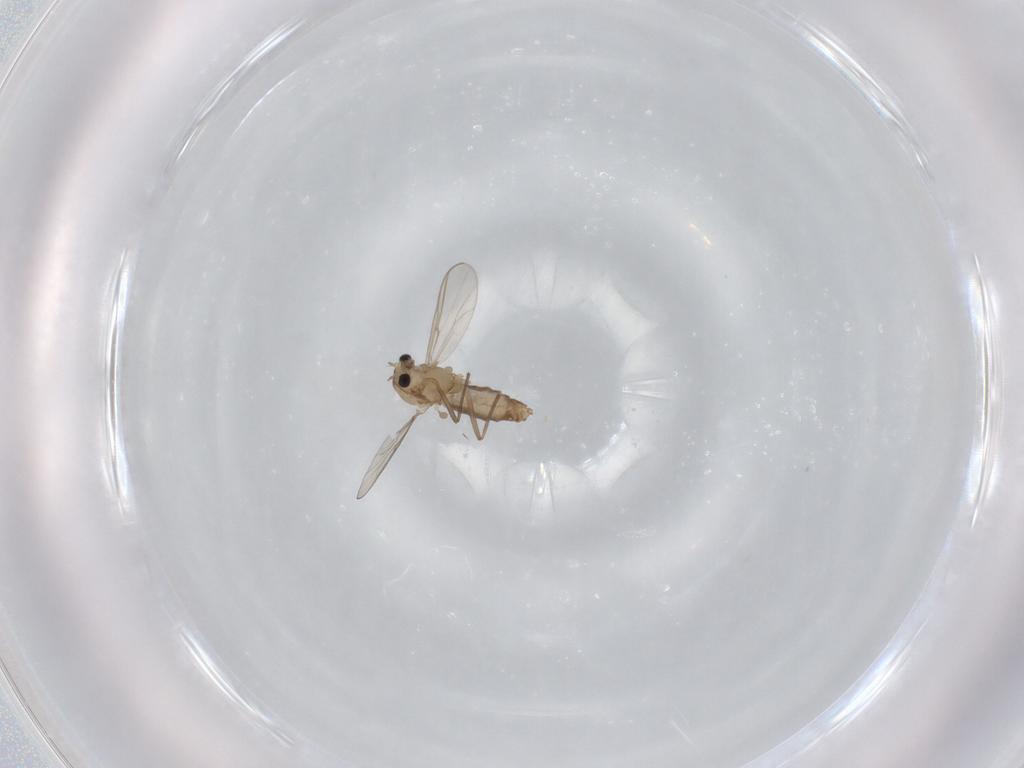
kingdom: Animalia
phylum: Arthropoda
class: Insecta
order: Diptera
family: Chironomidae
